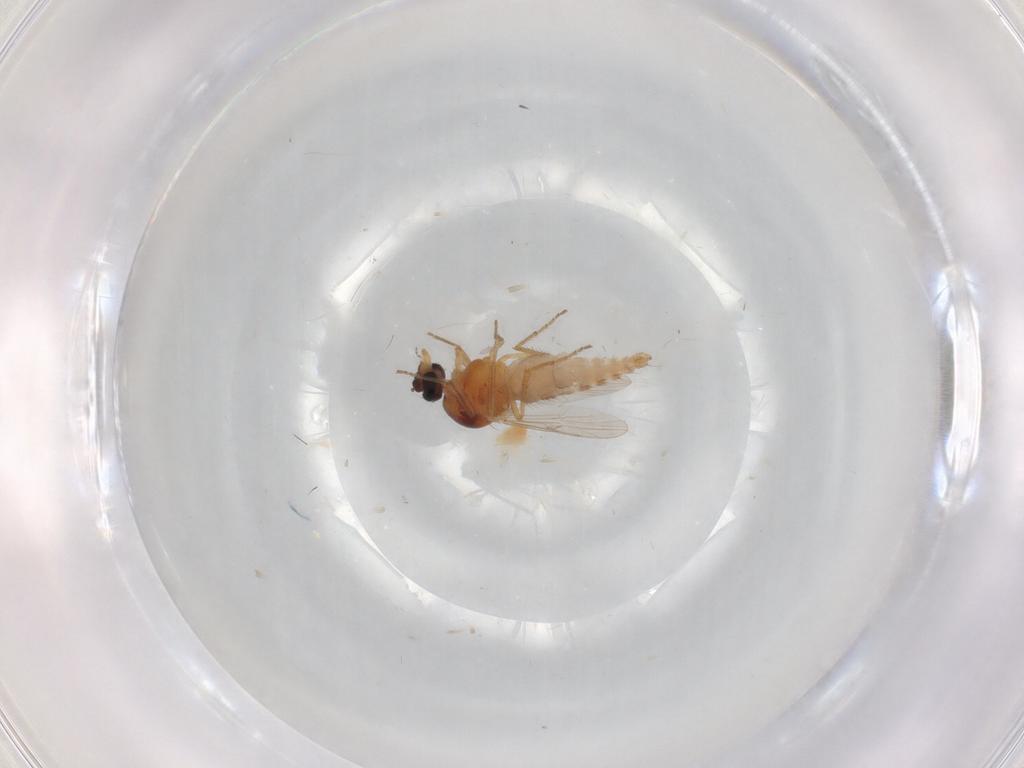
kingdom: Animalia
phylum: Arthropoda
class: Insecta
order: Diptera
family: Cecidomyiidae
